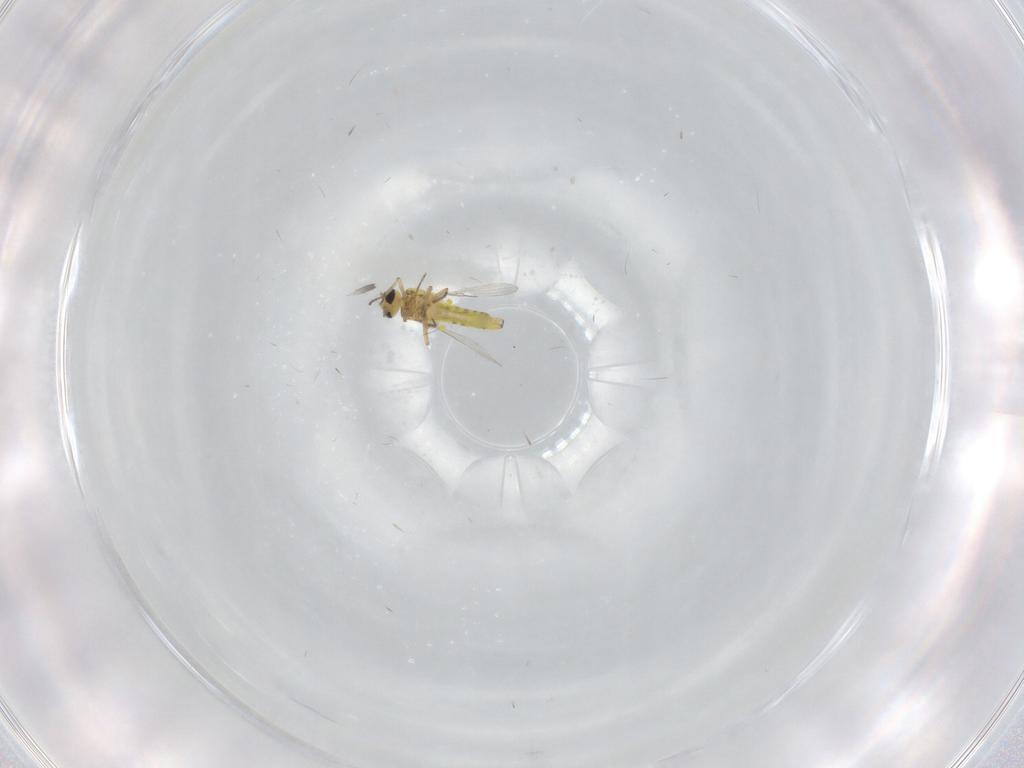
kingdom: Animalia
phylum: Arthropoda
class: Insecta
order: Diptera
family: Ceratopogonidae
